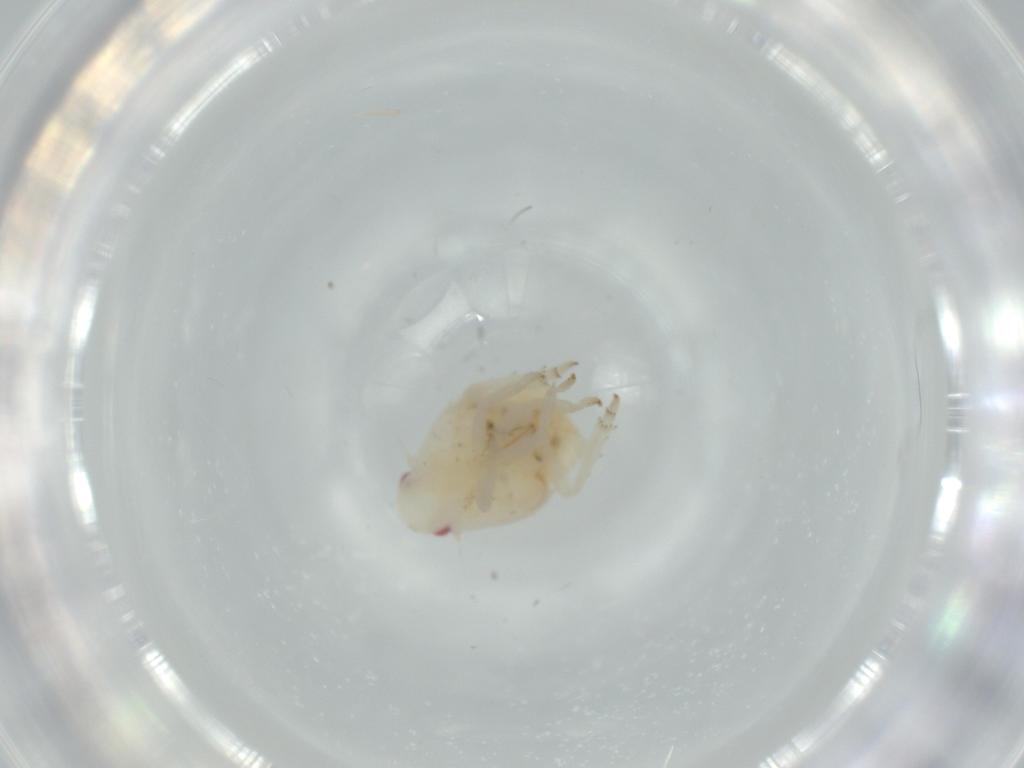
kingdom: Animalia
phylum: Arthropoda
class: Insecta
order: Hemiptera
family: Flatidae
